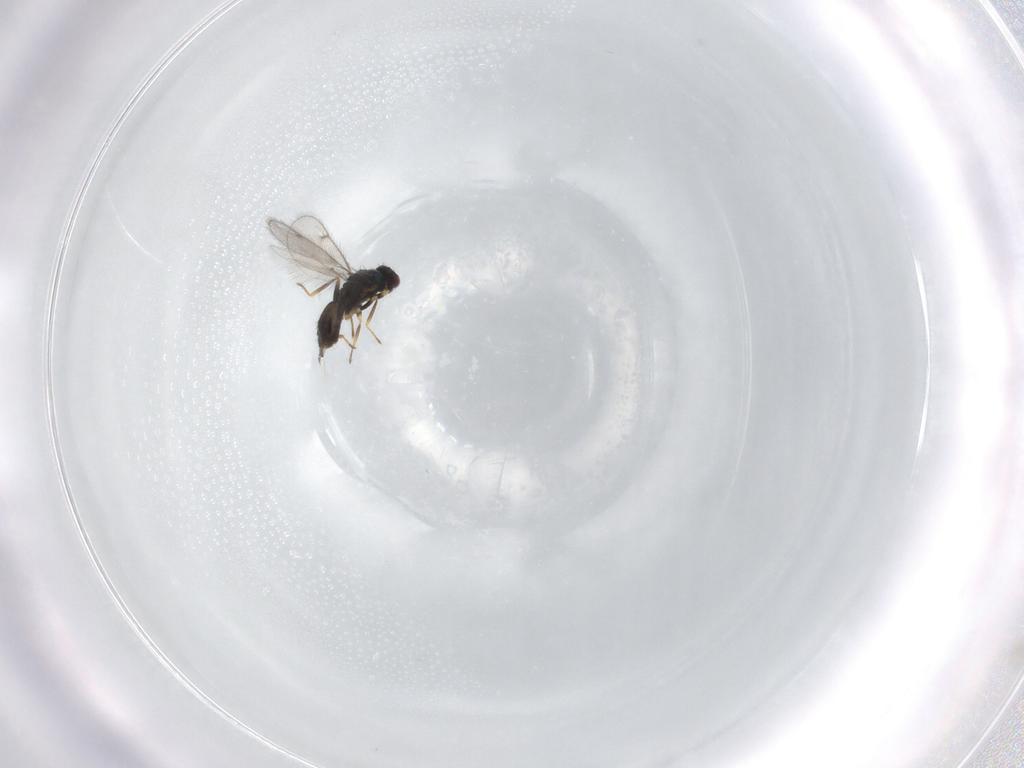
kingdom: Animalia
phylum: Arthropoda
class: Insecta
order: Hymenoptera
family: Eulophidae
